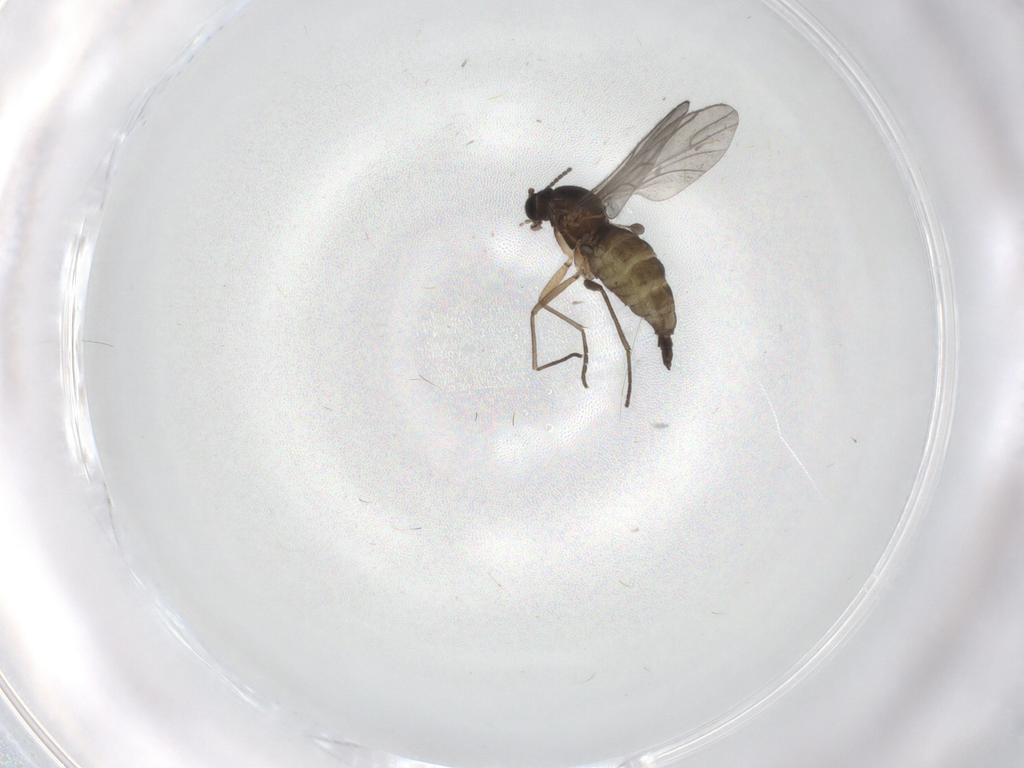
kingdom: Animalia
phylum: Arthropoda
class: Insecta
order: Diptera
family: Sciaridae
